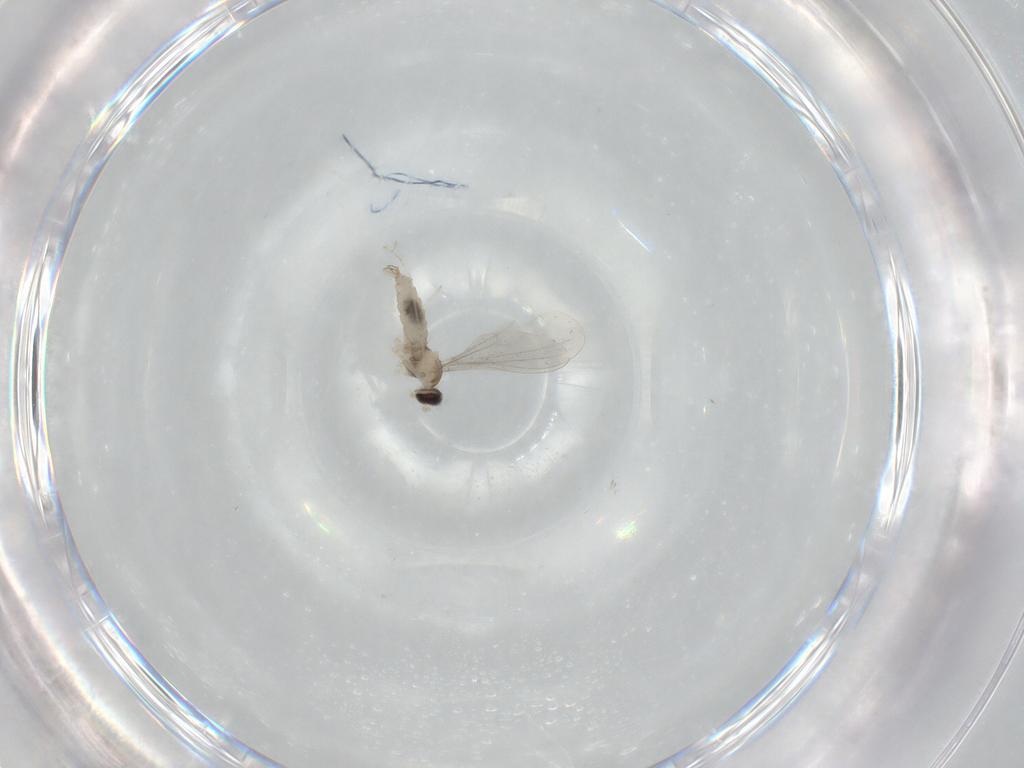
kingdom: Animalia
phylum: Arthropoda
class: Insecta
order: Diptera
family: Cecidomyiidae
